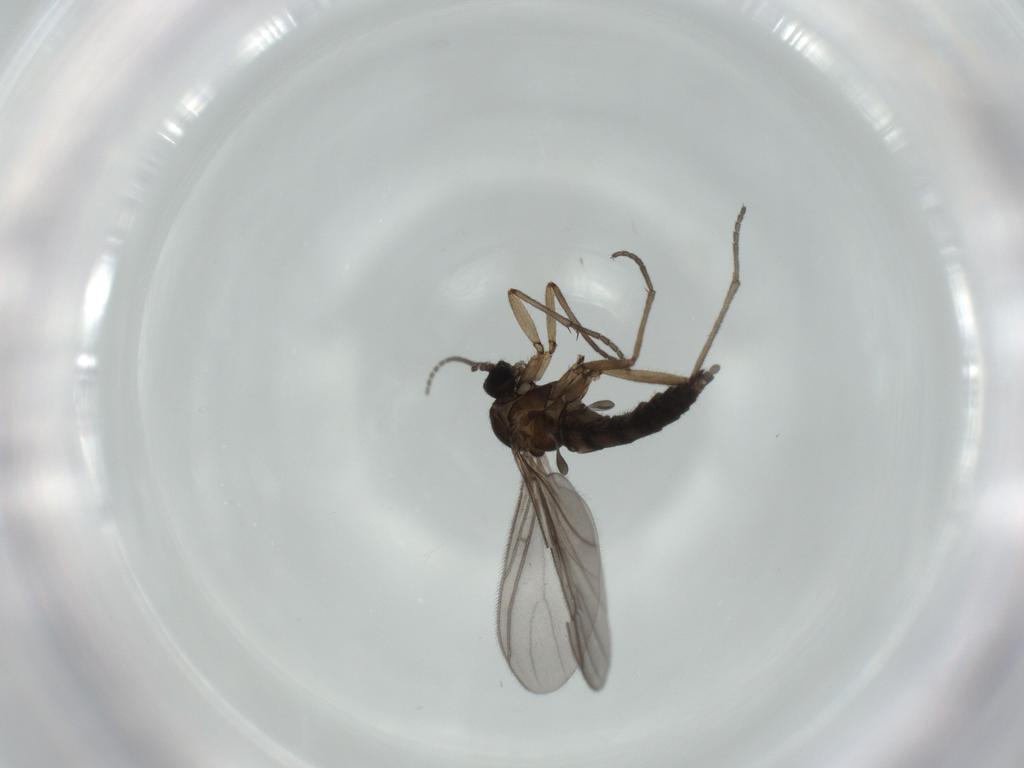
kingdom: Animalia
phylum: Arthropoda
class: Insecta
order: Diptera
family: Sciaridae
